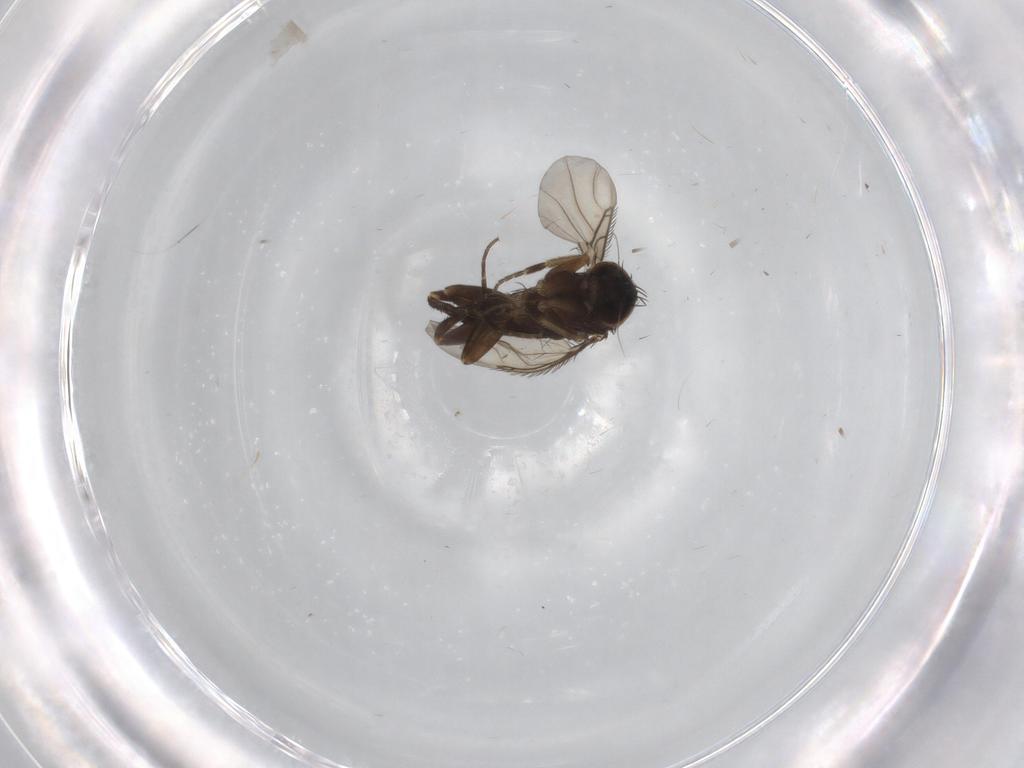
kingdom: Animalia
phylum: Arthropoda
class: Insecta
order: Diptera
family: Phoridae
